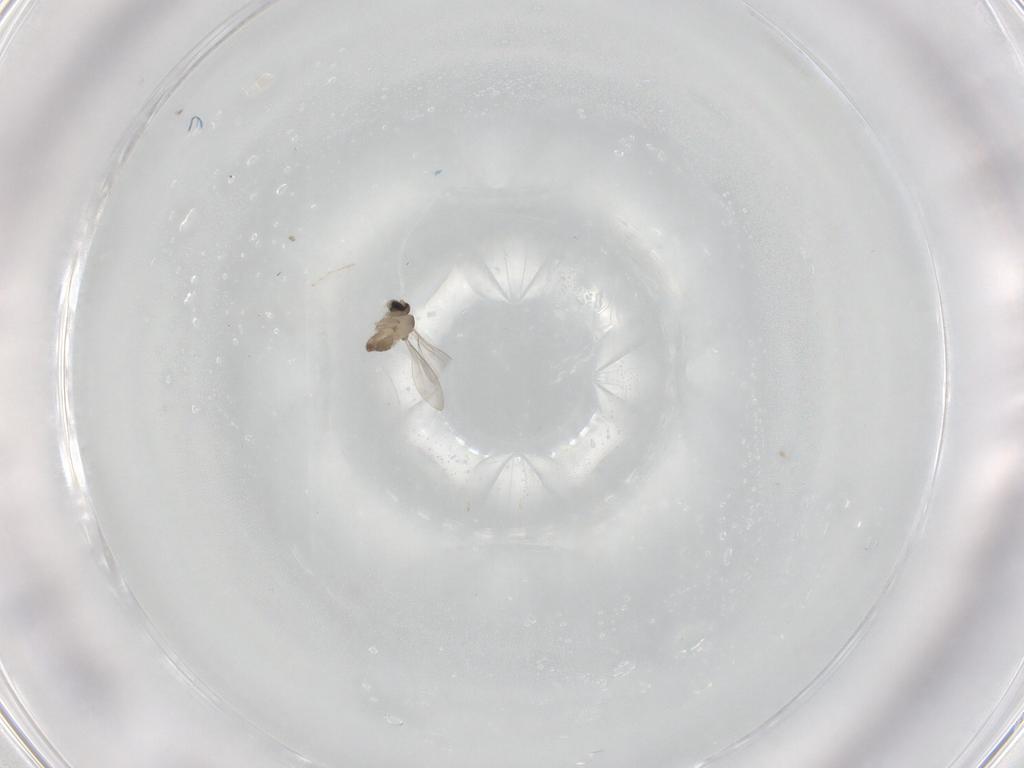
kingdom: Animalia
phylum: Arthropoda
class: Insecta
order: Diptera
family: Cecidomyiidae
